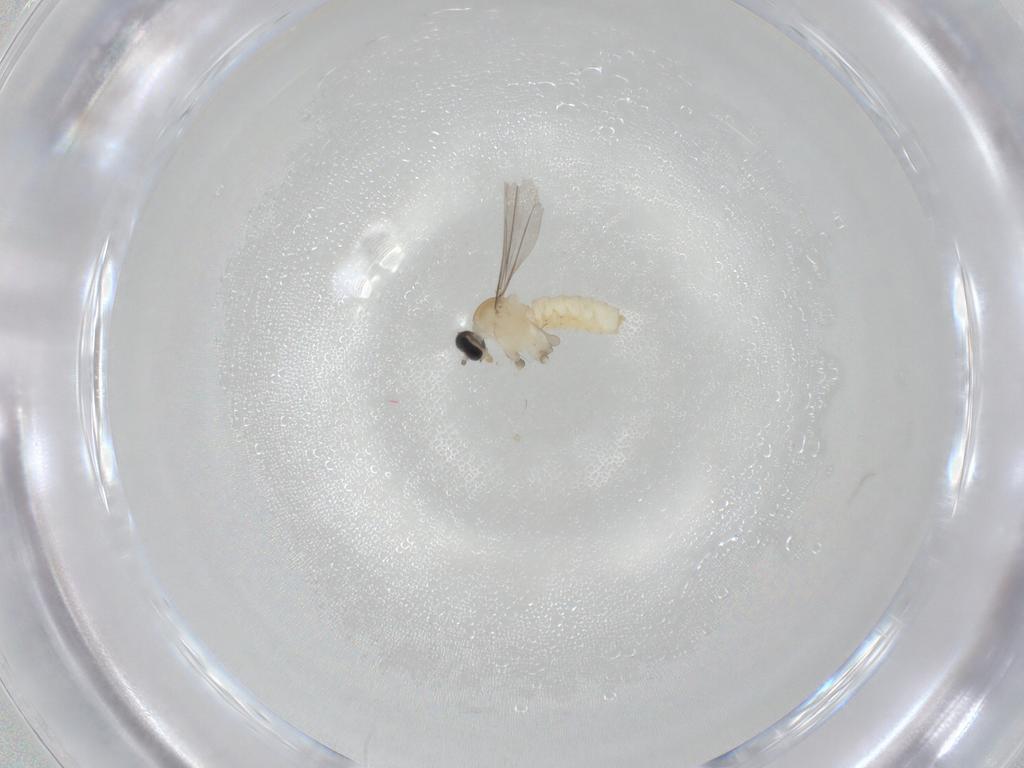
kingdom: Animalia
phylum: Arthropoda
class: Insecta
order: Diptera
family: Cecidomyiidae
